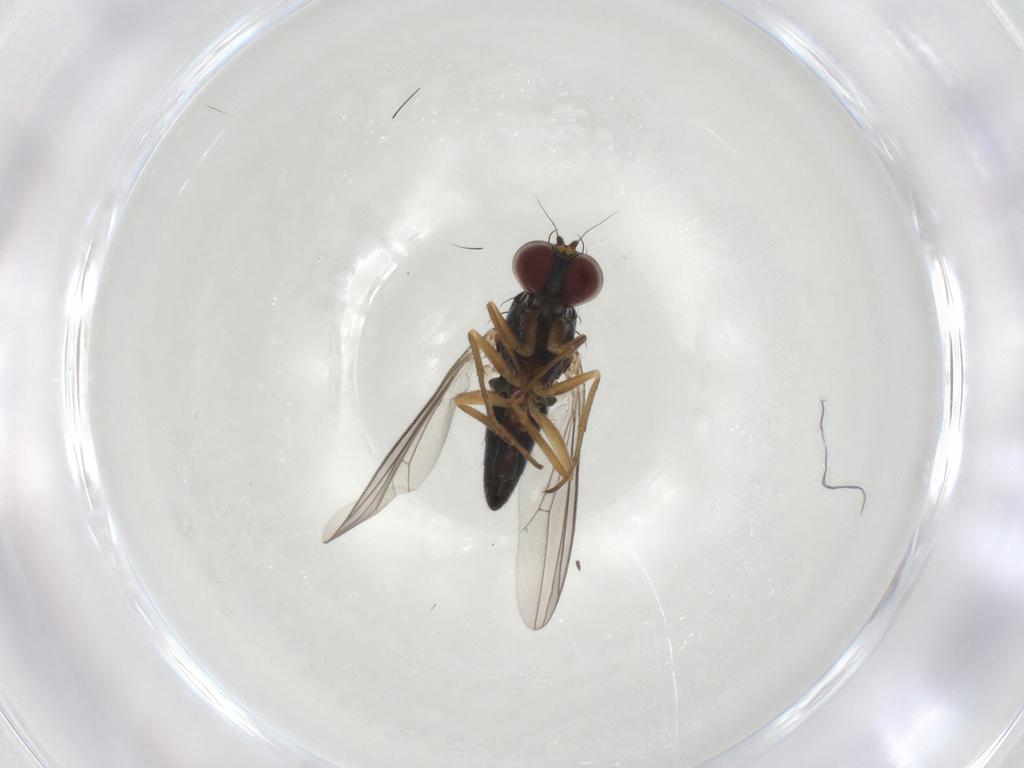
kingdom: Animalia
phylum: Arthropoda
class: Insecta
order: Diptera
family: Dolichopodidae
